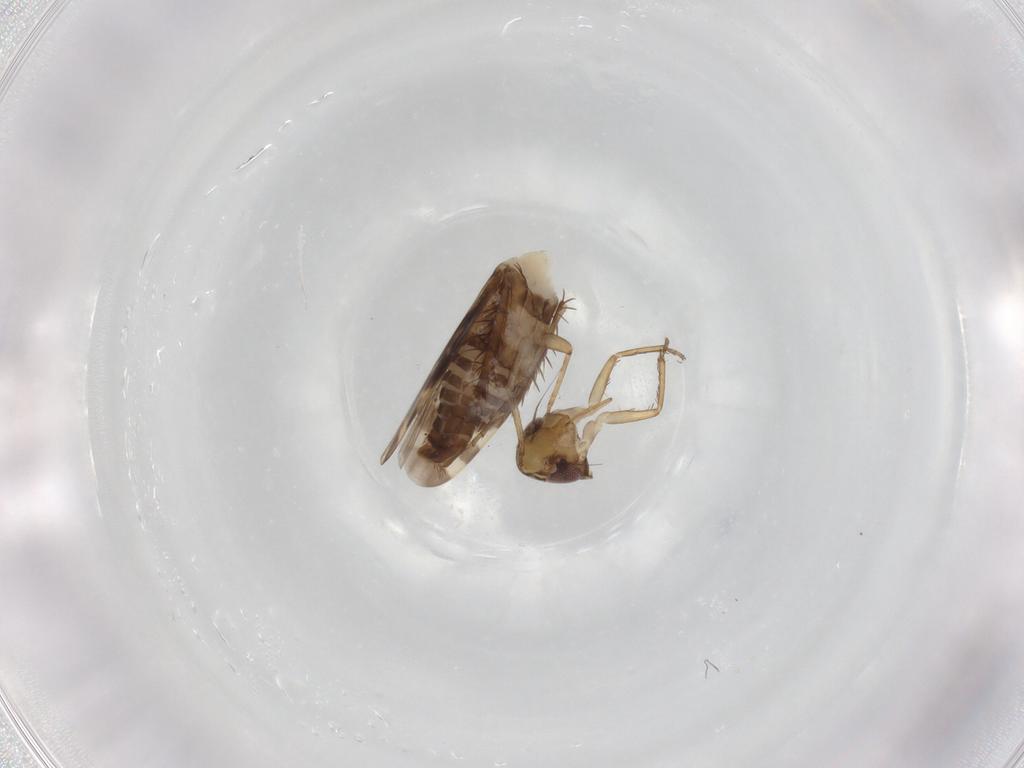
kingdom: Animalia
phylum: Arthropoda
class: Insecta
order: Hemiptera
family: Cicadellidae
